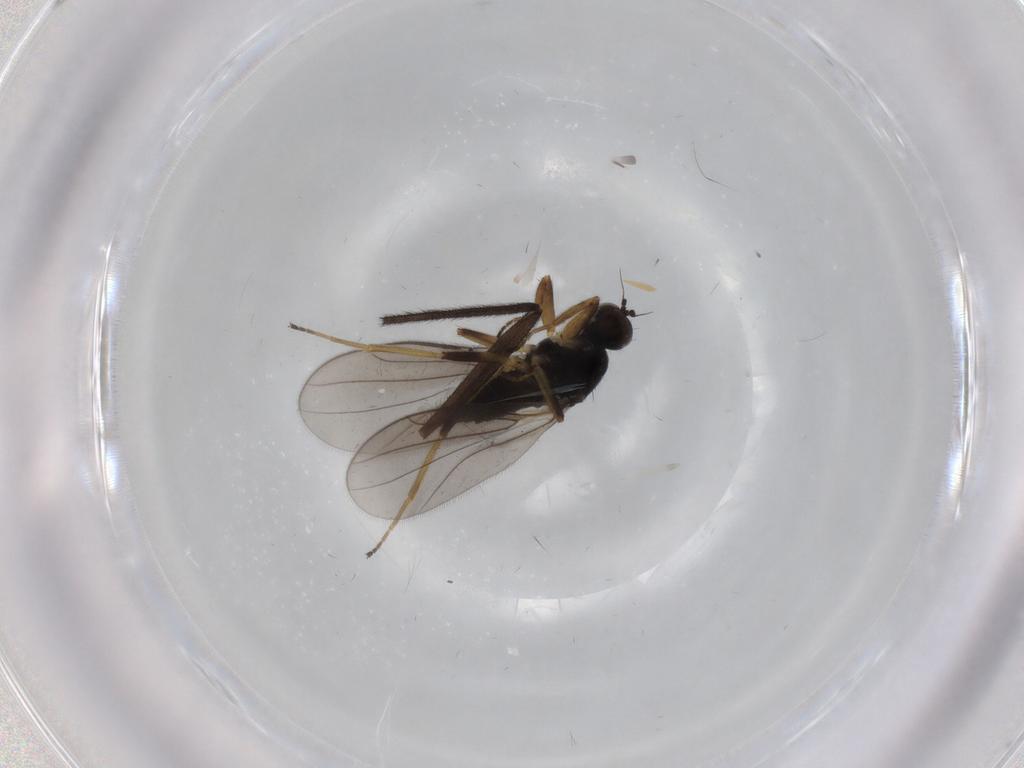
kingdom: Animalia
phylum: Arthropoda
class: Insecta
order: Diptera
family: Hybotidae
